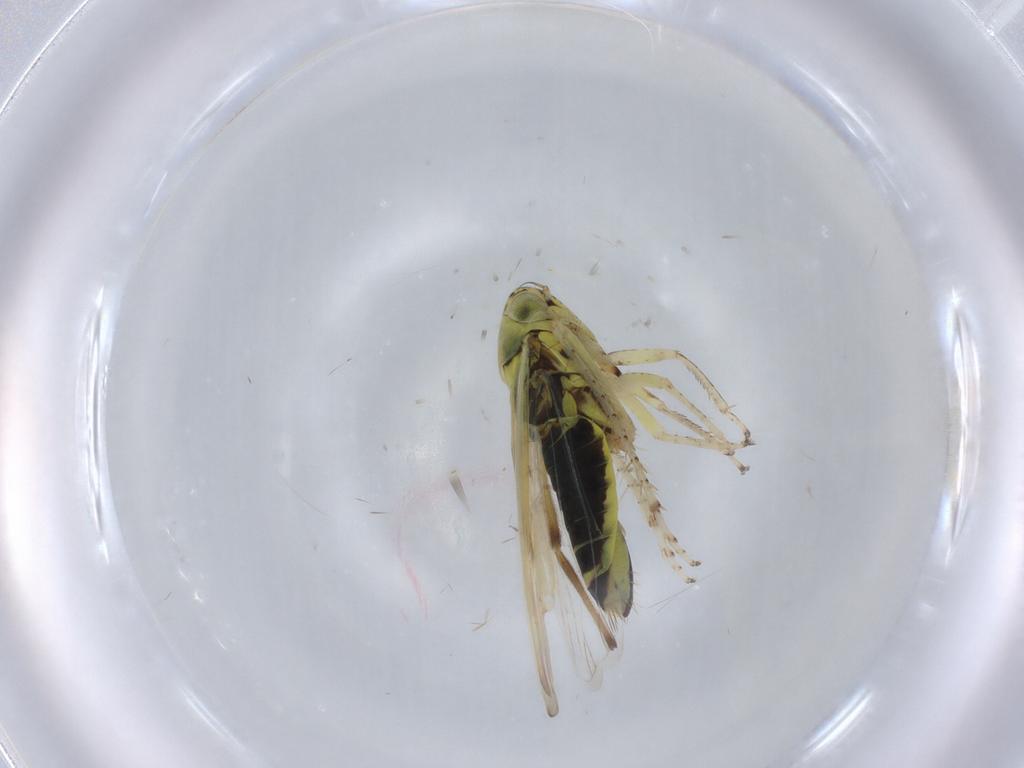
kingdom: Animalia
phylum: Arthropoda
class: Insecta
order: Hemiptera
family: Cicadellidae
